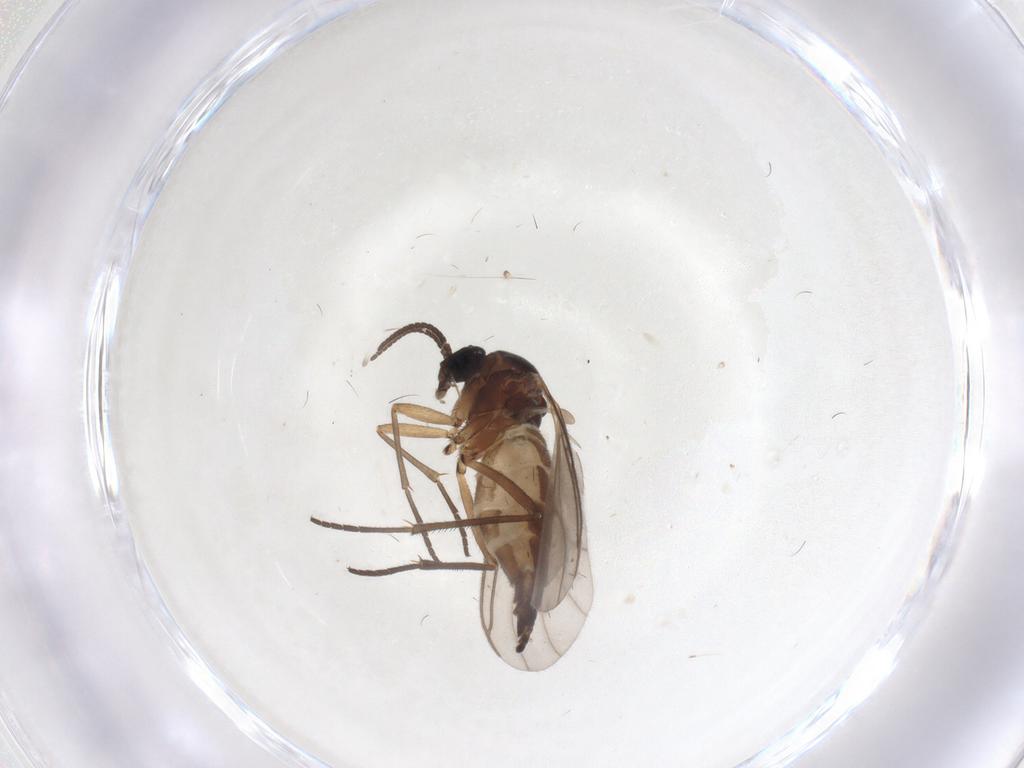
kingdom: Animalia
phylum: Arthropoda
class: Insecta
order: Diptera
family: Sciaridae
